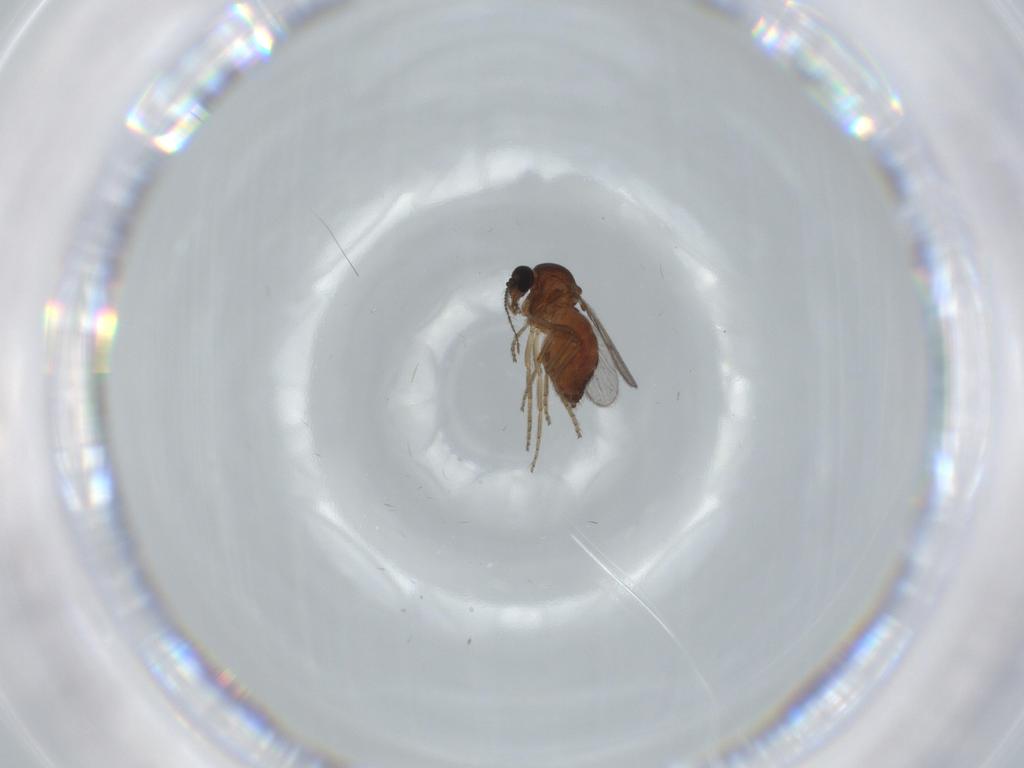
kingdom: Animalia
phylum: Arthropoda
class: Insecta
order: Diptera
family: Ceratopogonidae
